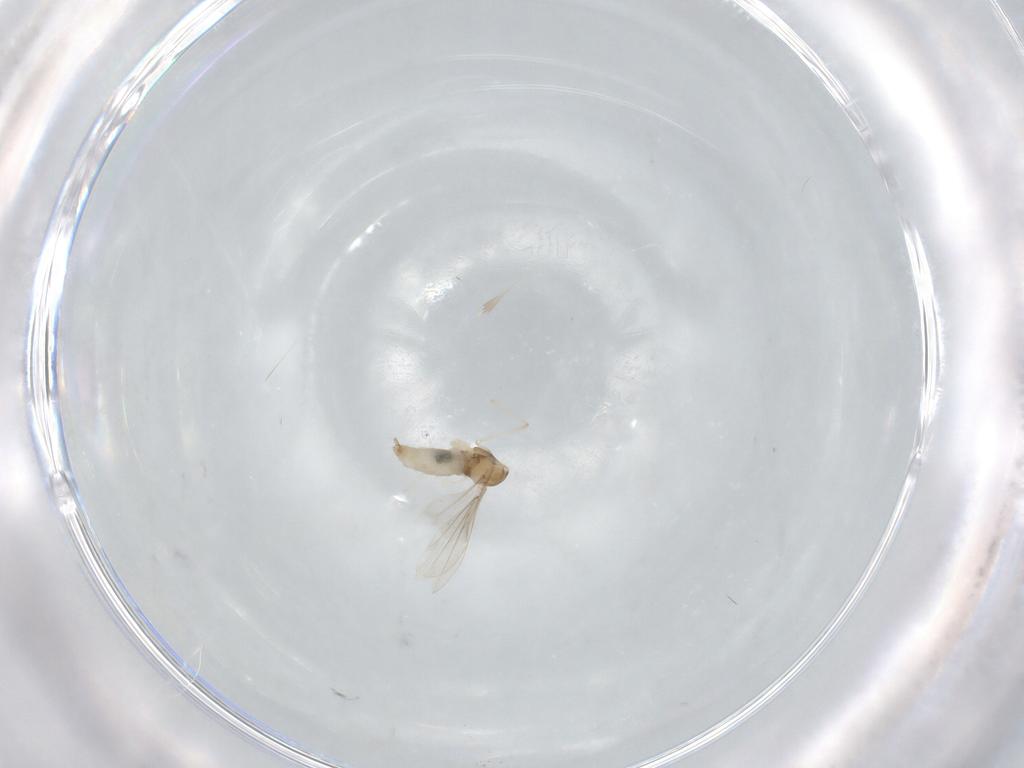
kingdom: Animalia
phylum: Arthropoda
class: Insecta
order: Diptera
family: Cecidomyiidae
